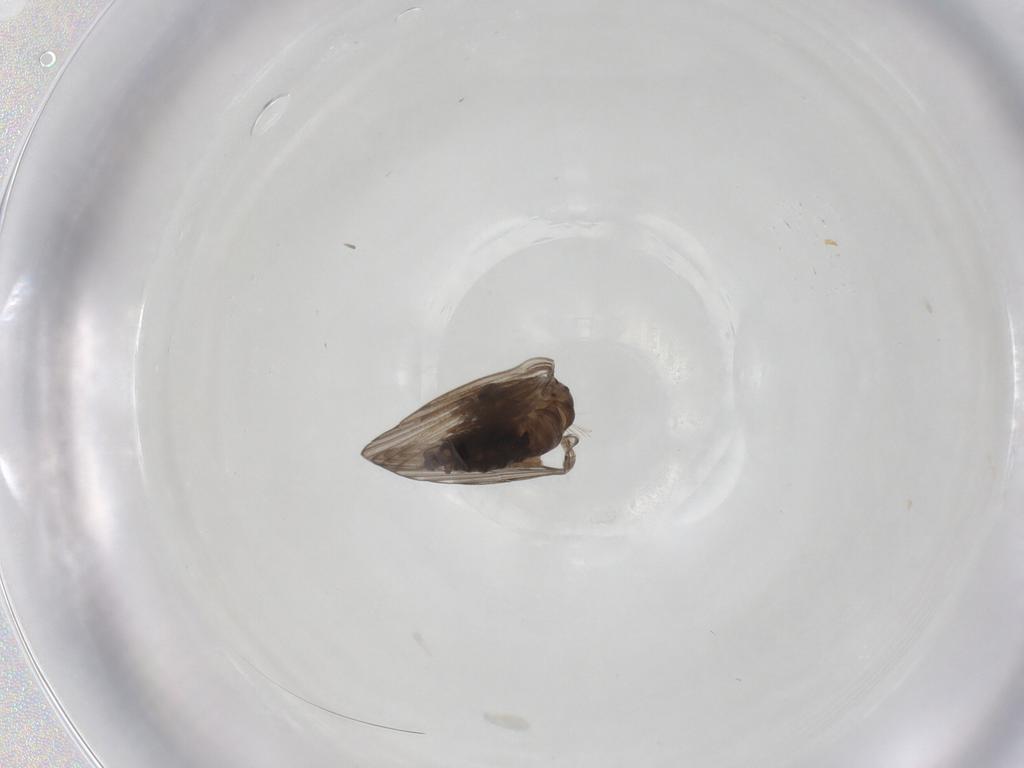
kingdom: Animalia
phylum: Arthropoda
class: Insecta
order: Diptera
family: Psychodidae
